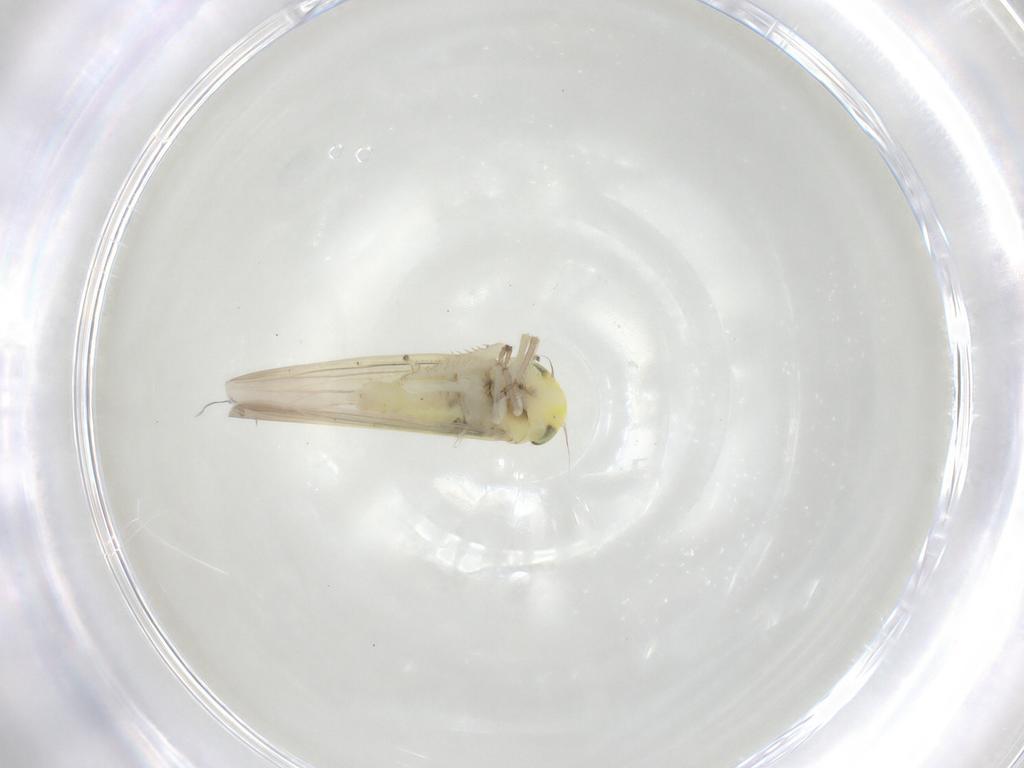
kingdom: Animalia
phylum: Arthropoda
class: Insecta
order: Hemiptera
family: Cicadellidae
